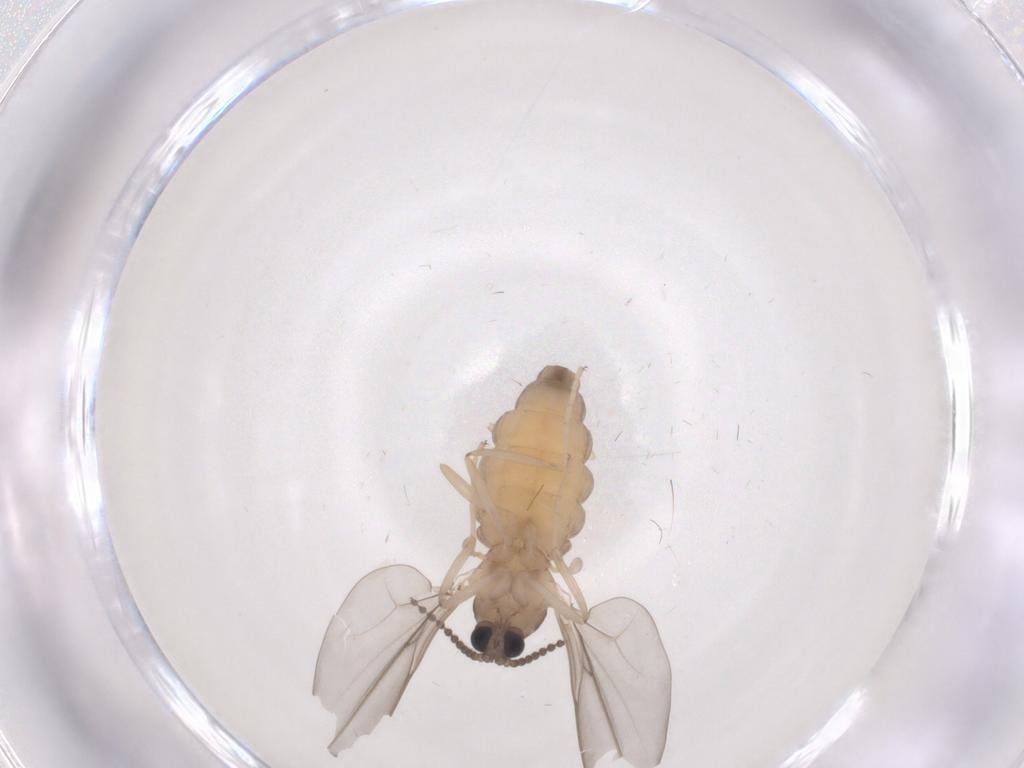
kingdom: Animalia
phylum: Arthropoda
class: Insecta
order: Diptera
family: Cecidomyiidae
